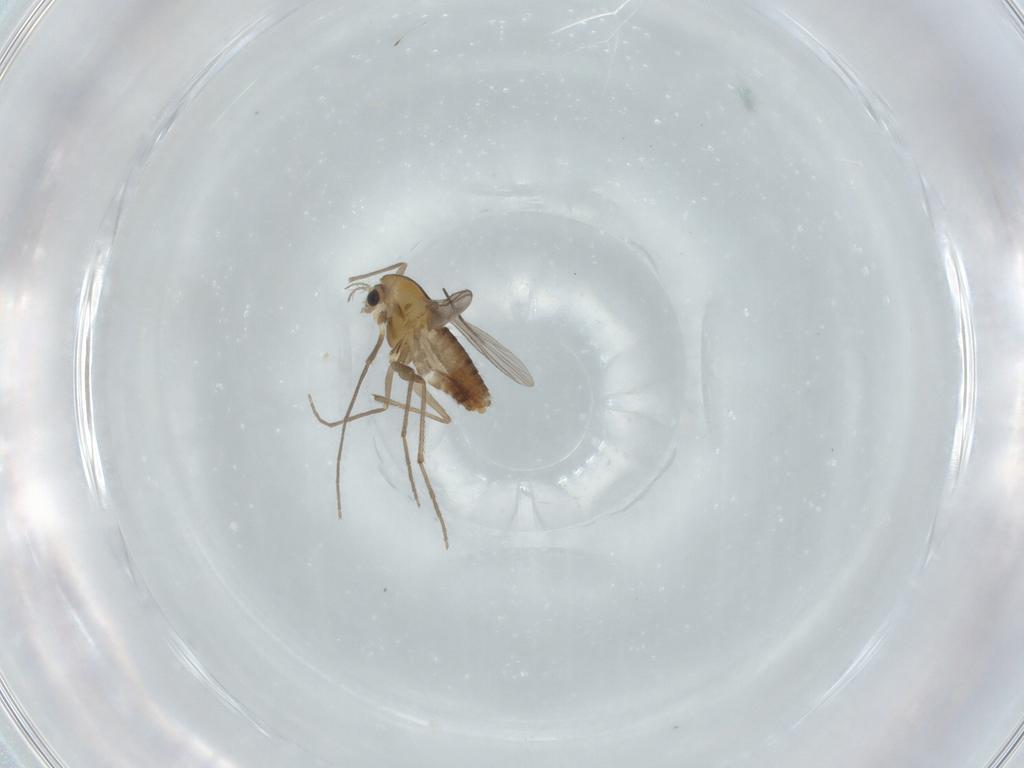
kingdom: Animalia
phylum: Arthropoda
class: Insecta
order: Diptera
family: Chironomidae
